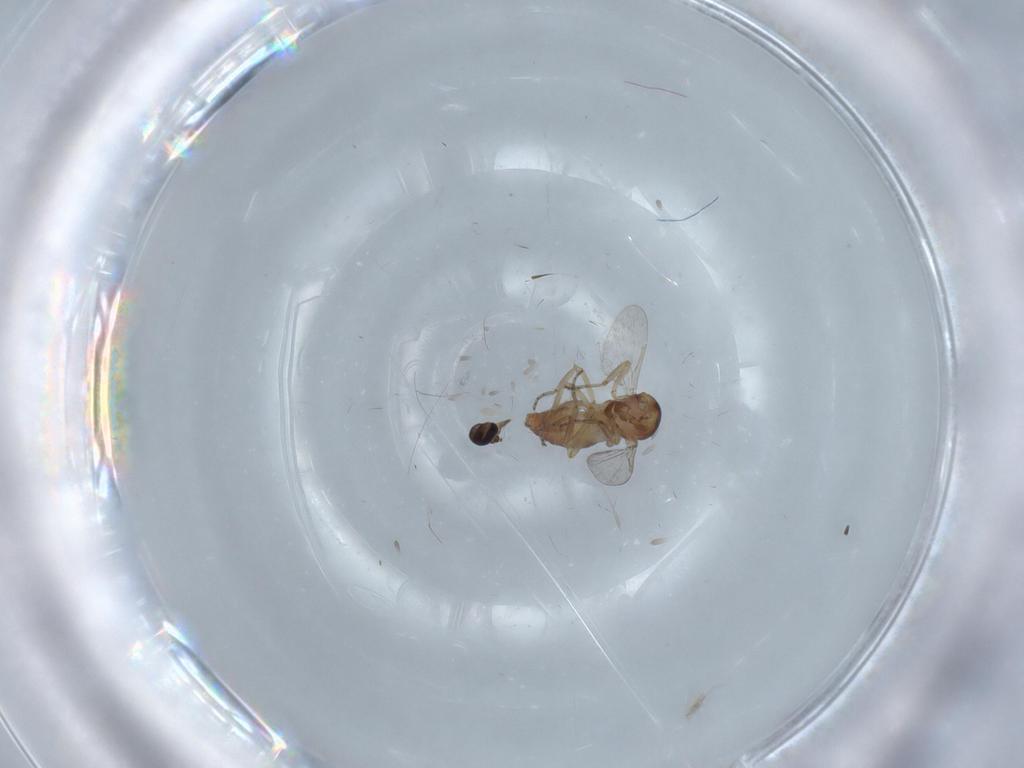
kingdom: Animalia
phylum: Arthropoda
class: Insecta
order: Diptera
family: Ceratopogonidae
